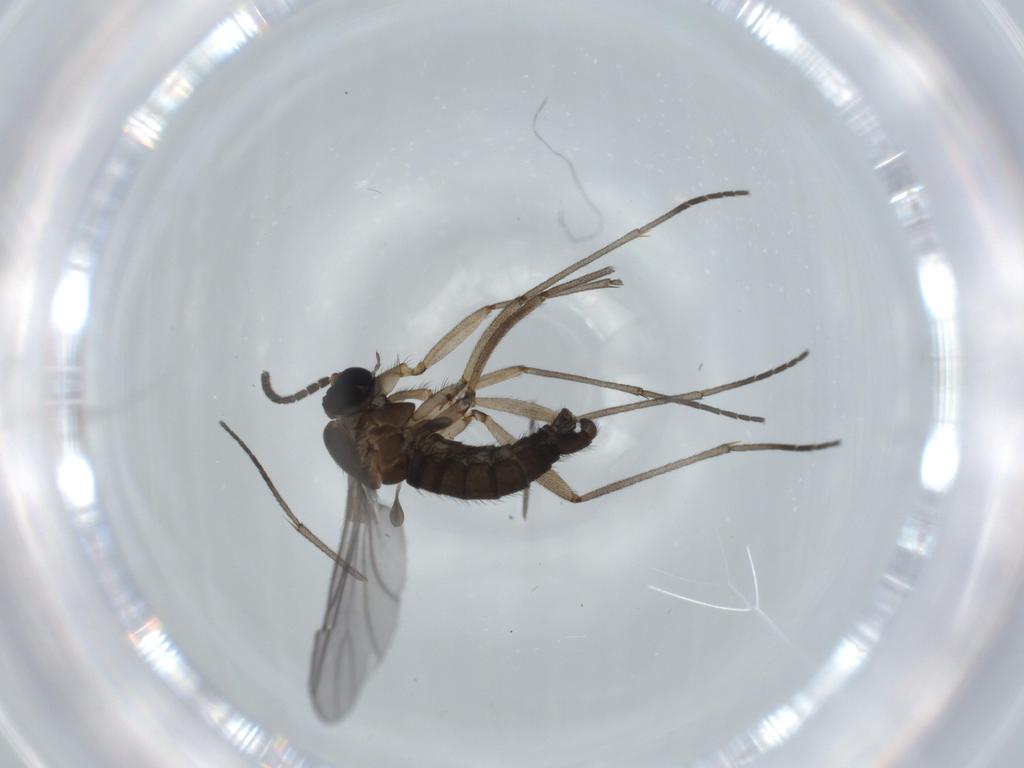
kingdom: Animalia
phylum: Arthropoda
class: Insecta
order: Diptera
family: Sciaridae
